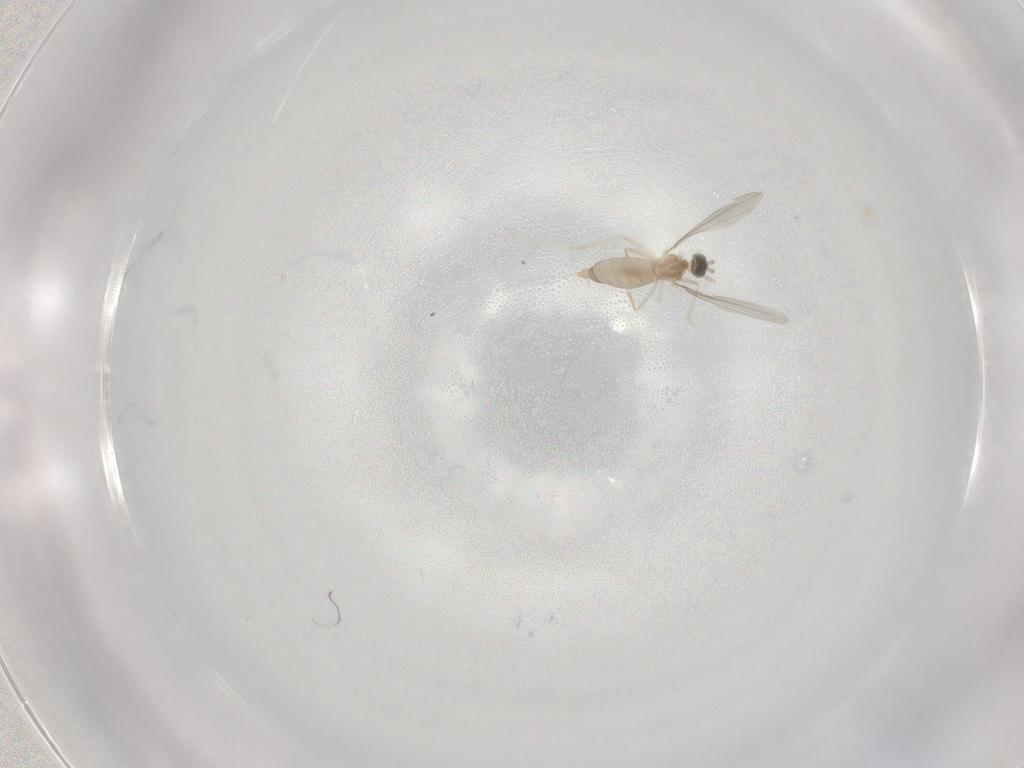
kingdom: Animalia
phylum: Arthropoda
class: Insecta
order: Diptera
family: Cecidomyiidae
